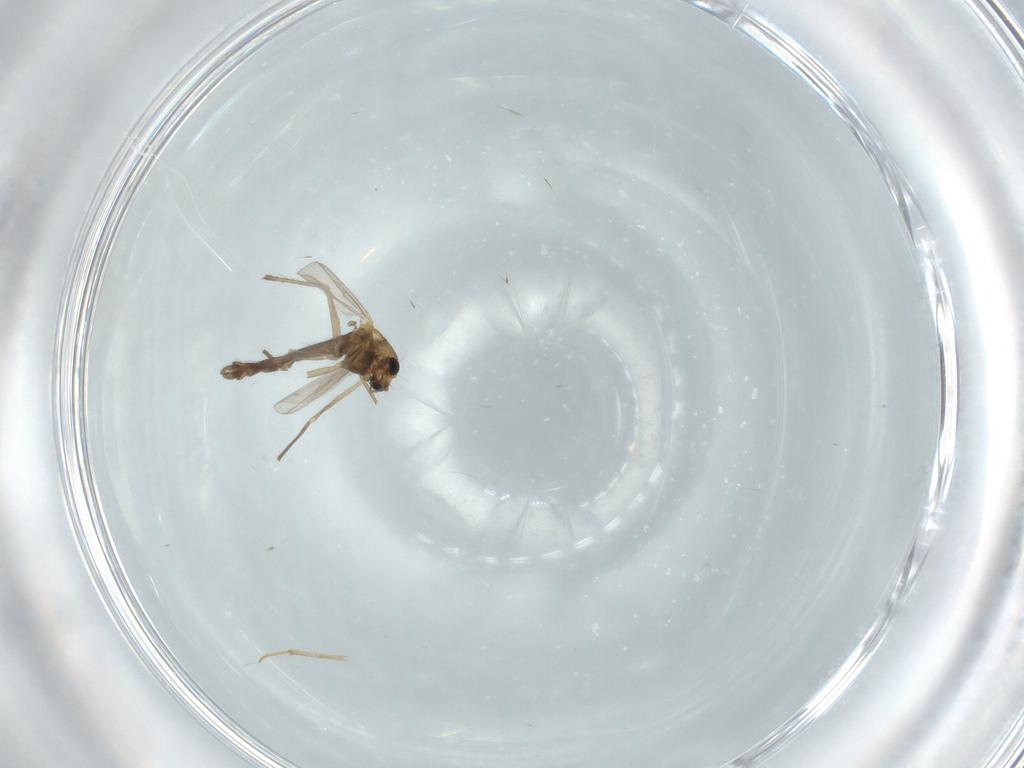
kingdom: Animalia
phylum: Arthropoda
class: Insecta
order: Diptera
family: Chironomidae
